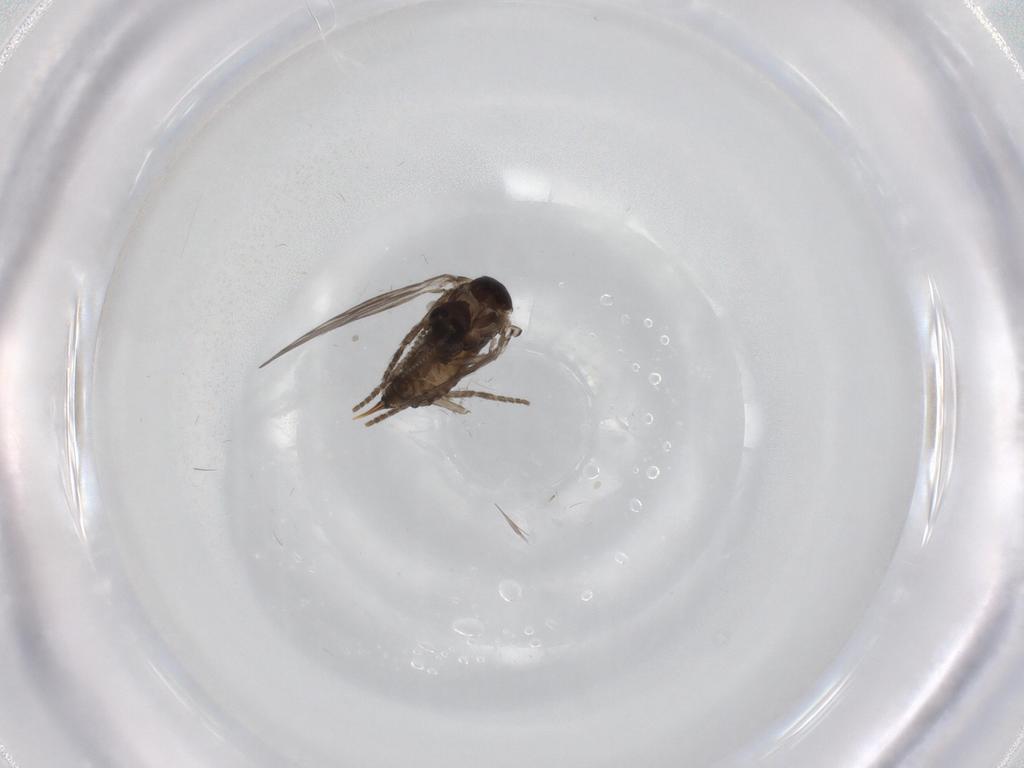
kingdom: Animalia
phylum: Arthropoda
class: Insecta
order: Diptera
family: Psychodidae
